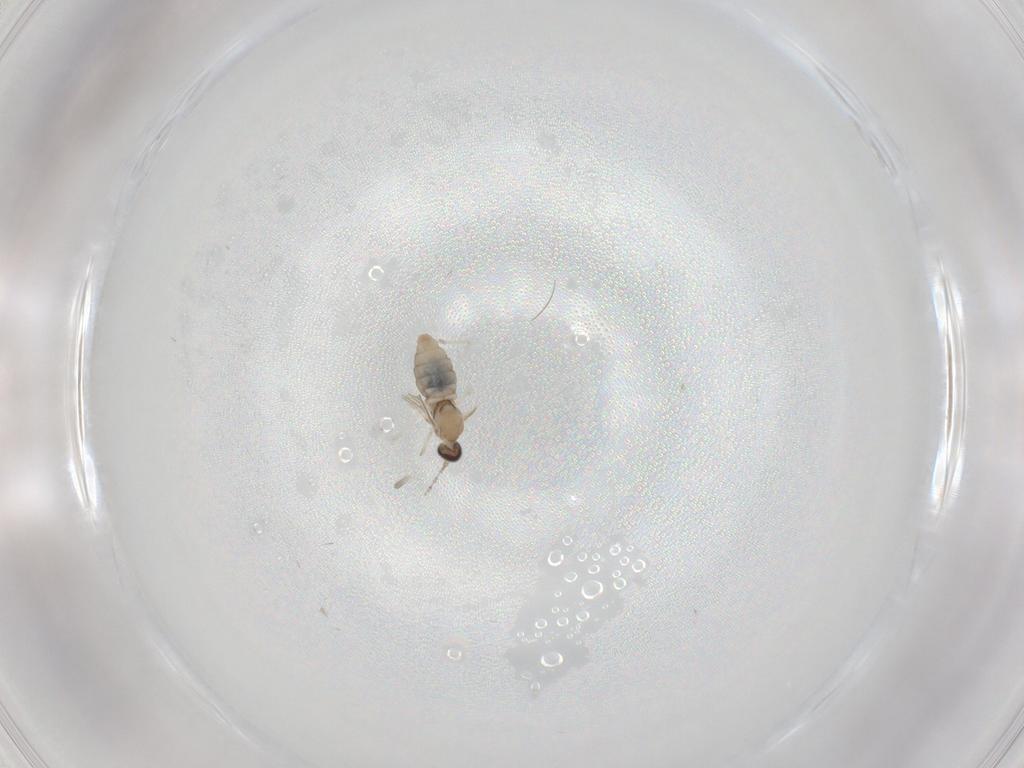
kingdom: Animalia
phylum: Arthropoda
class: Insecta
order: Diptera
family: Cecidomyiidae
